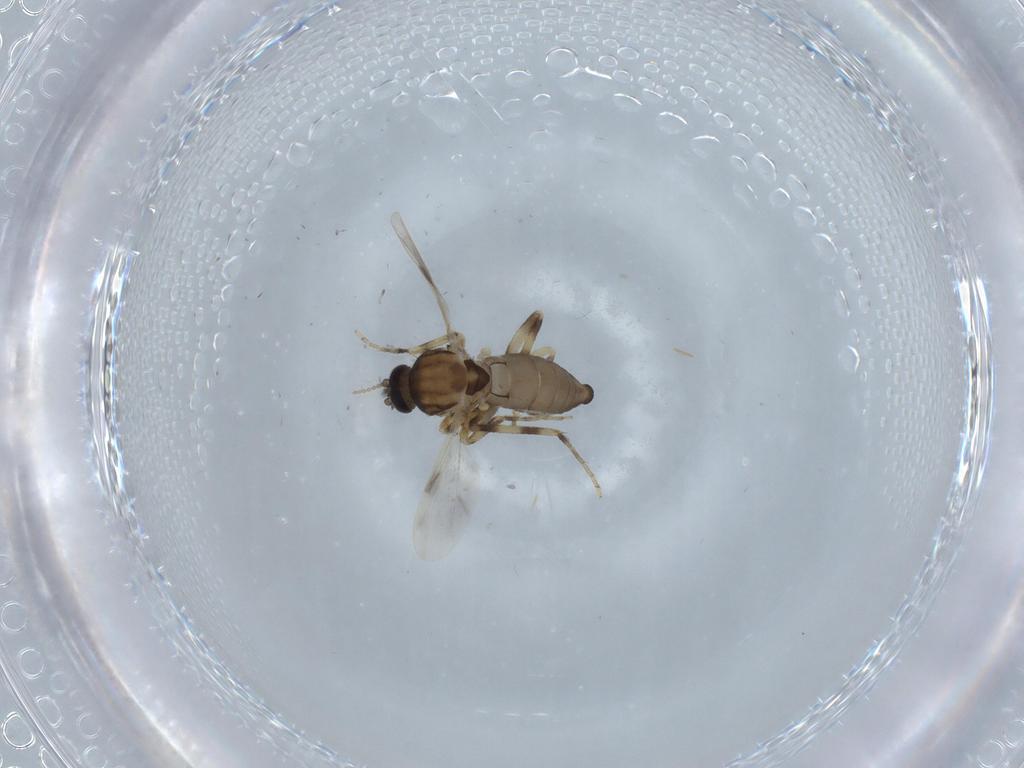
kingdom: Animalia
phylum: Arthropoda
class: Insecta
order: Diptera
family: Ceratopogonidae
